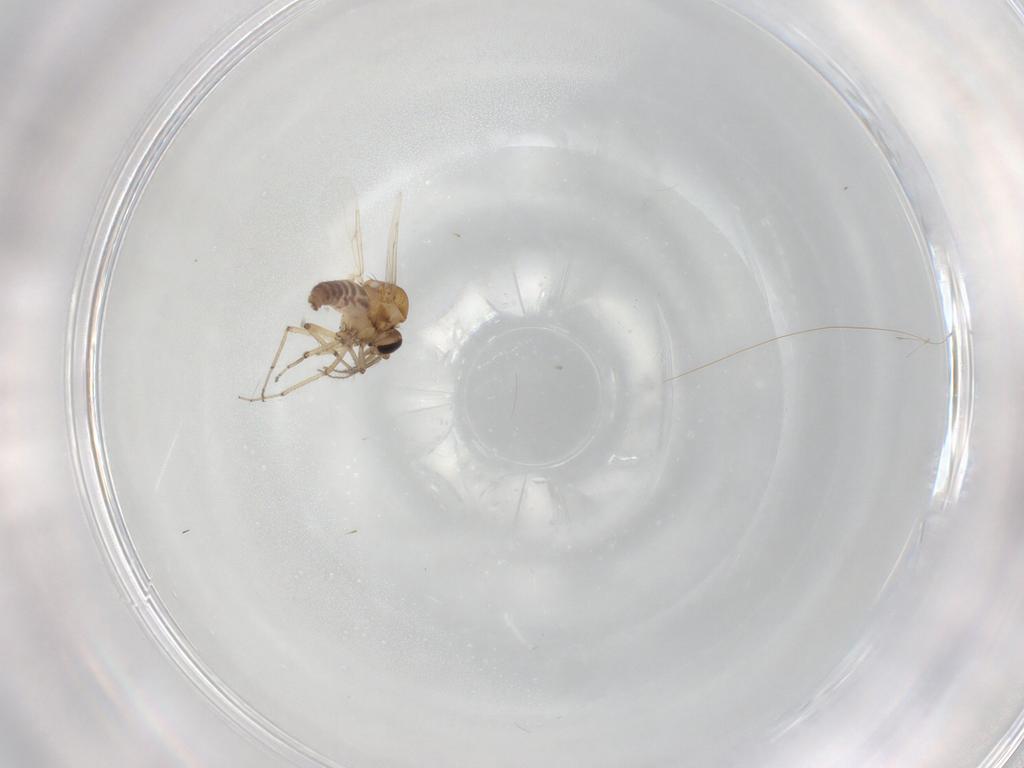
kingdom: Animalia
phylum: Arthropoda
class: Insecta
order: Diptera
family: Ceratopogonidae
